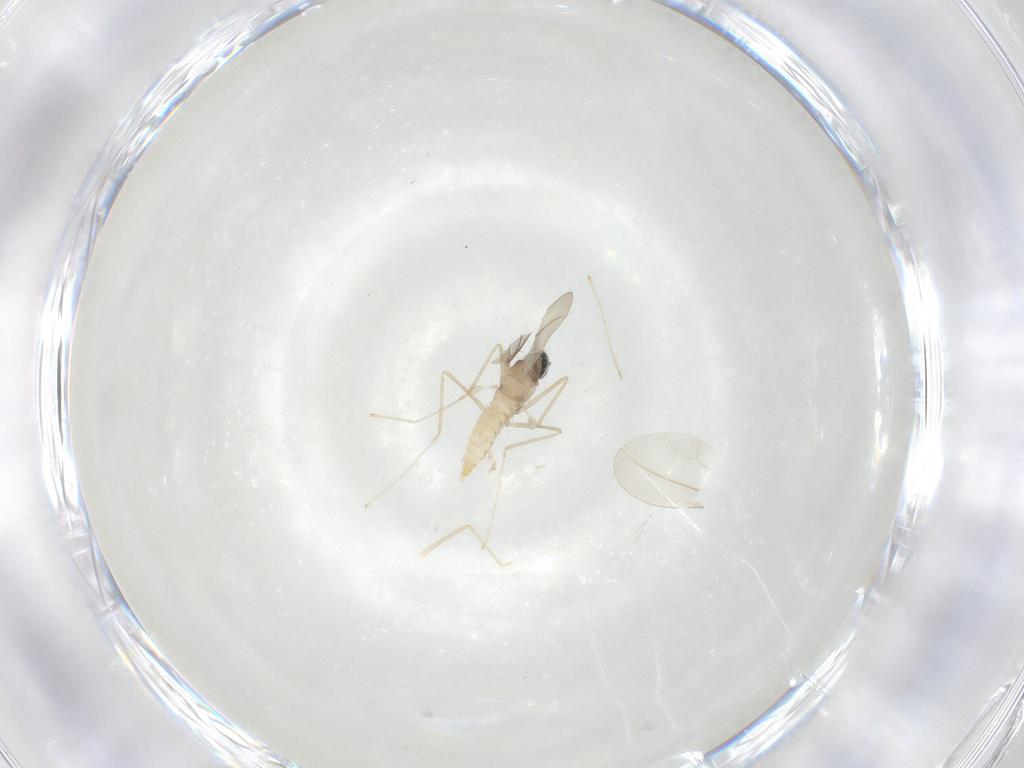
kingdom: Animalia
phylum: Arthropoda
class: Insecta
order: Diptera
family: Cecidomyiidae
